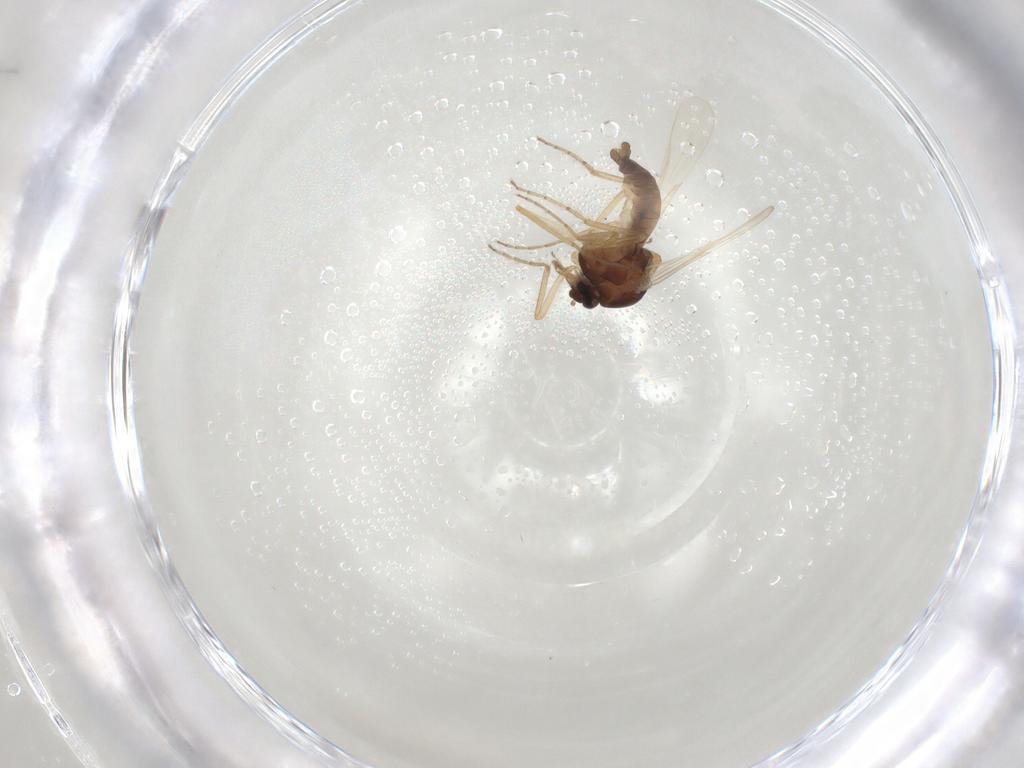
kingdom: Animalia
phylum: Arthropoda
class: Insecta
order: Diptera
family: Ceratopogonidae
